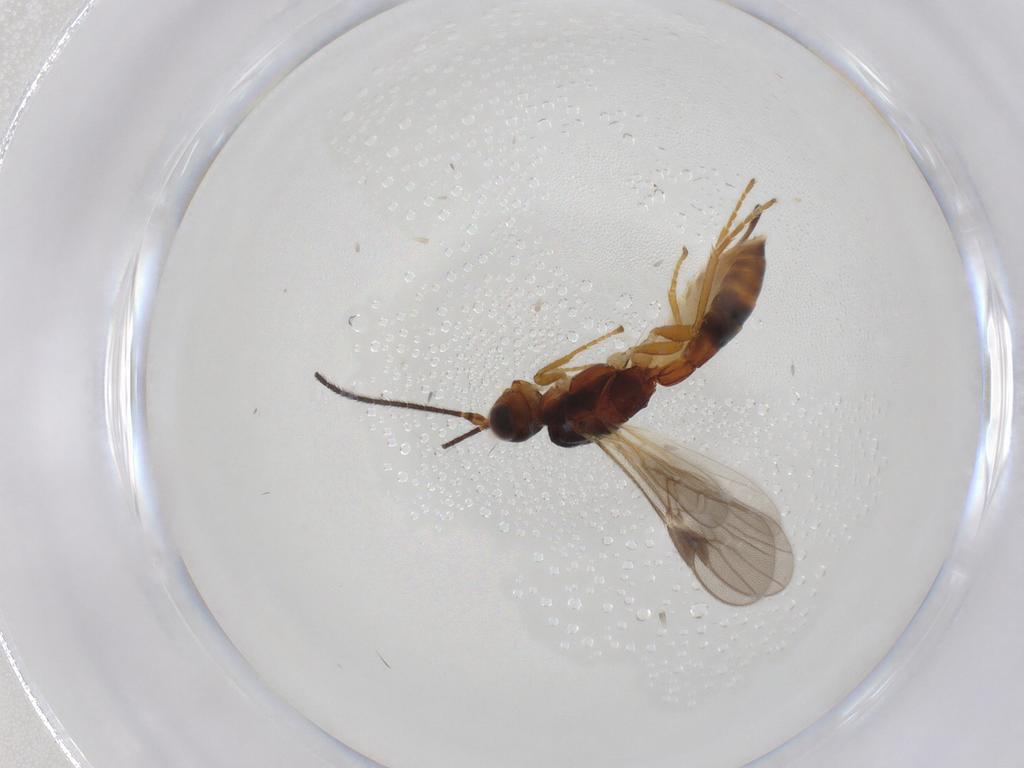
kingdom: Animalia
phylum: Arthropoda
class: Insecta
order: Hymenoptera
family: Braconidae
